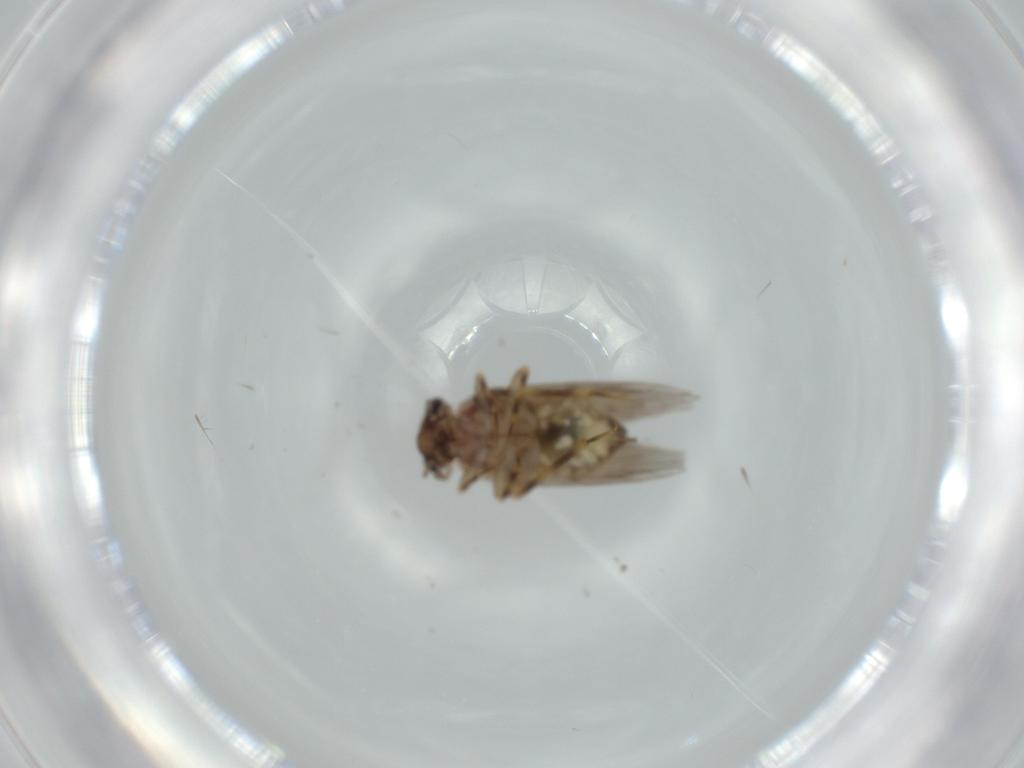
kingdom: Animalia
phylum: Arthropoda
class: Insecta
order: Psocodea
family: Lepidopsocidae
